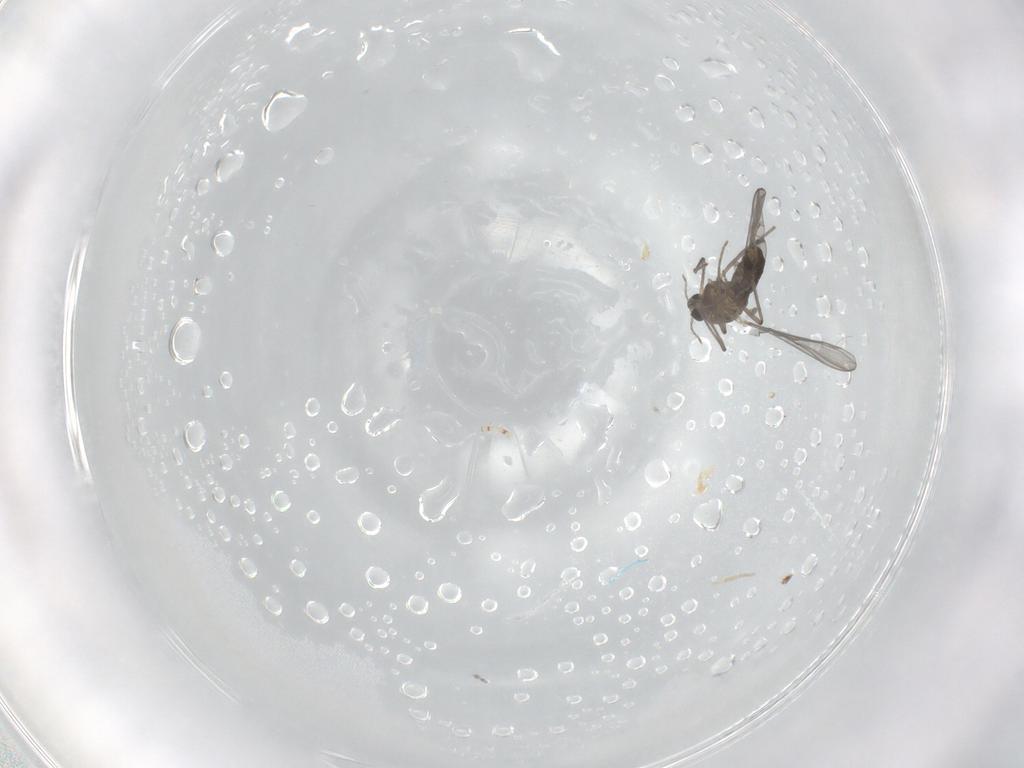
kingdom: Animalia
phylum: Arthropoda
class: Insecta
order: Diptera
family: Chironomidae
